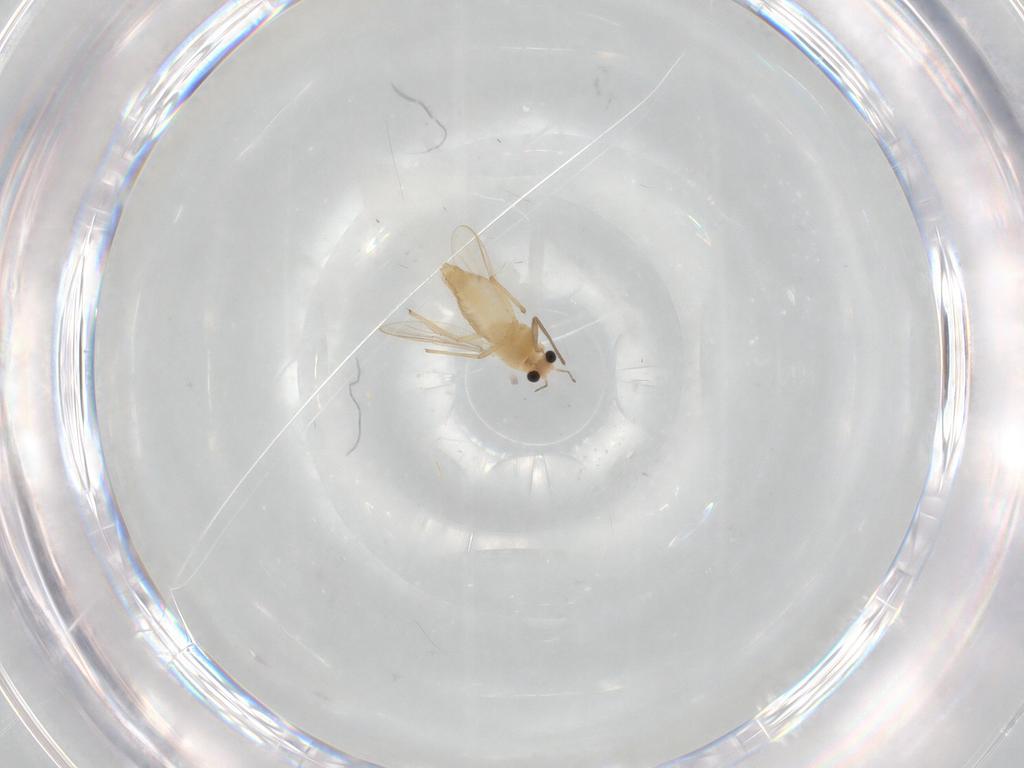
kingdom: Animalia
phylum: Arthropoda
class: Insecta
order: Diptera
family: Chironomidae
